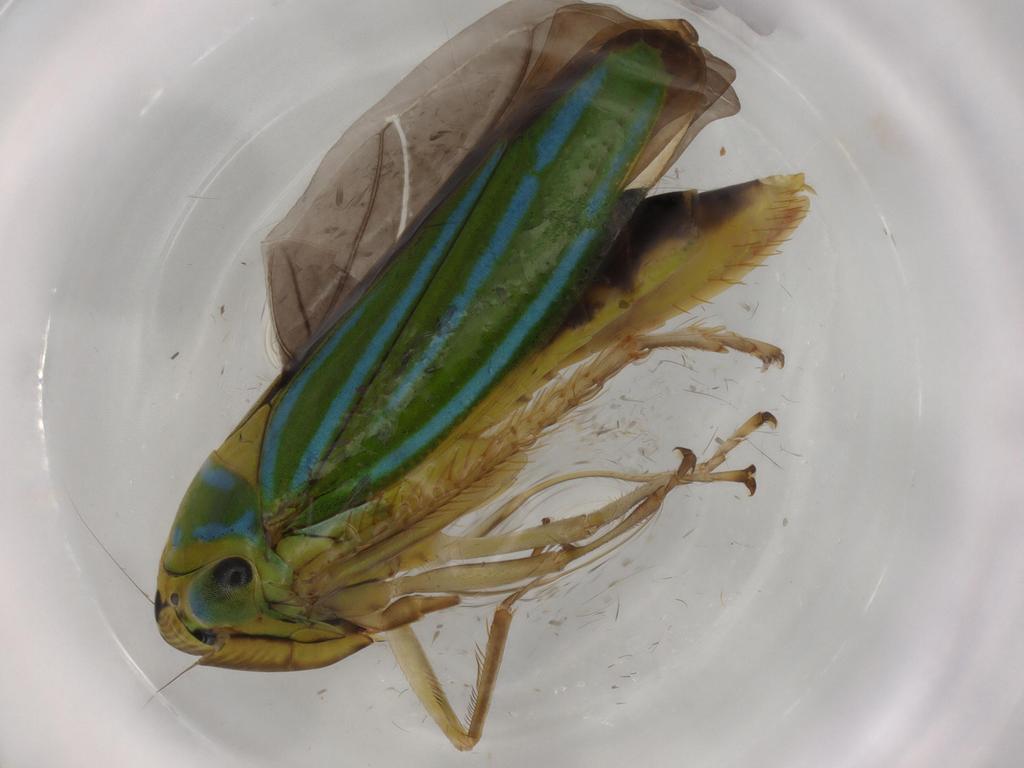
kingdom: Animalia
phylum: Arthropoda
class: Insecta
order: Hemiptera
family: Cicadellidae
